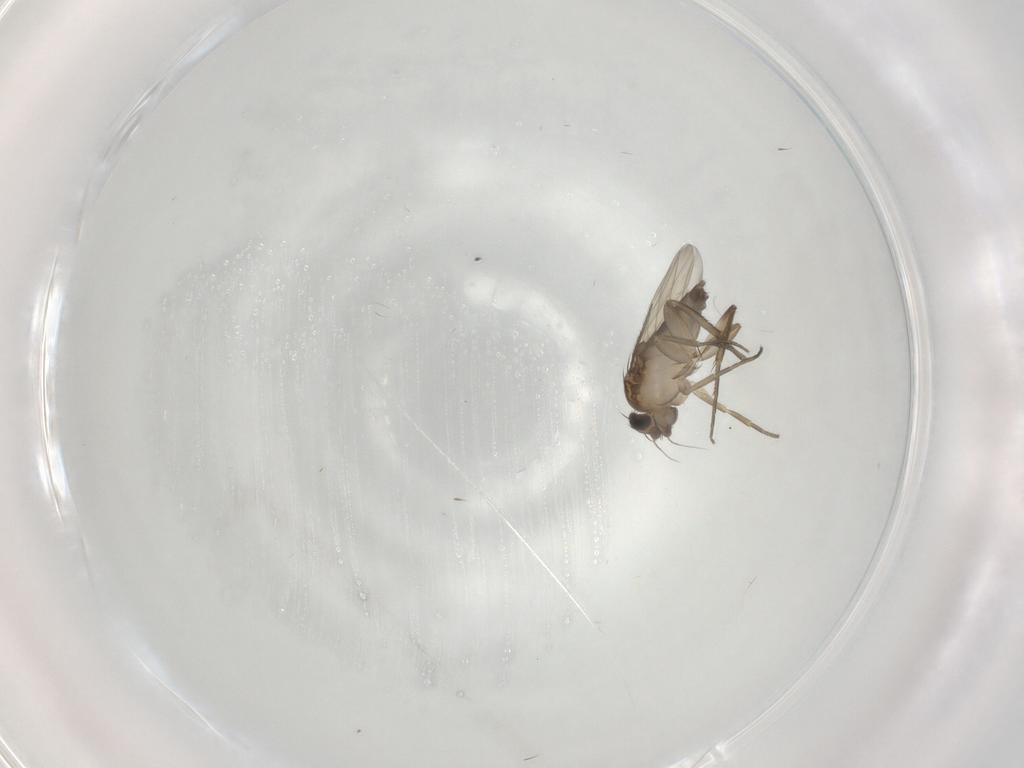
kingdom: Animalia
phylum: Arthropoda
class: Insecta
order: Diptera
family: Phoridae
